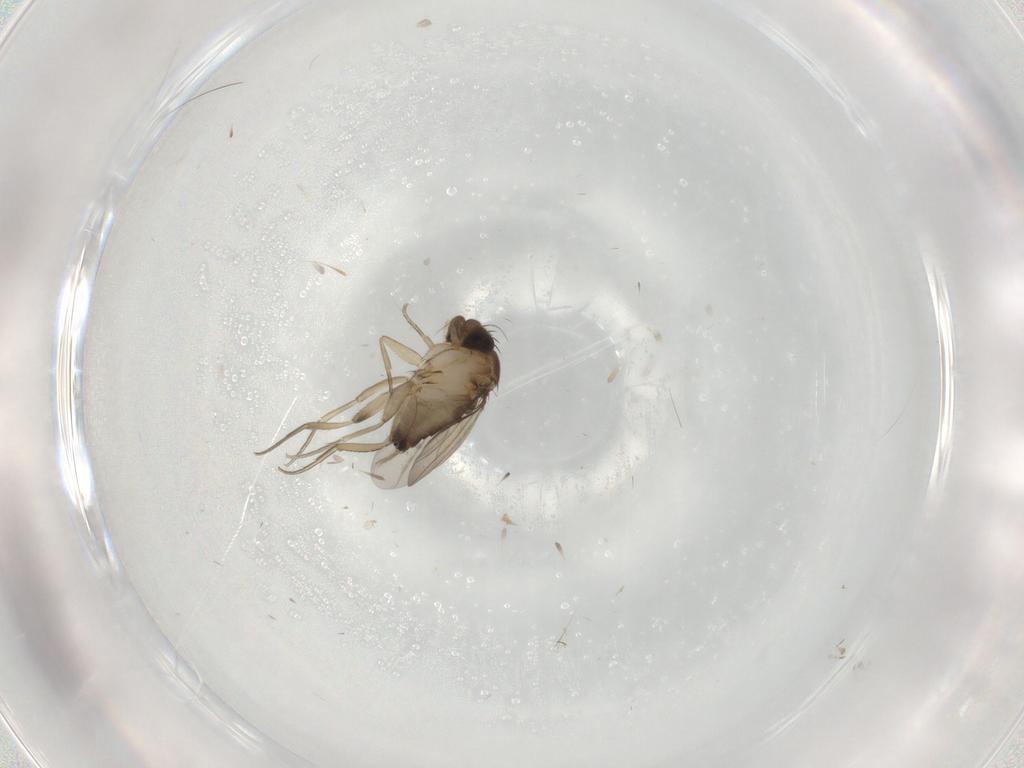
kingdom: Animalia
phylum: Arthropoda
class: Insecta
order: Diptera
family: Phoridae
